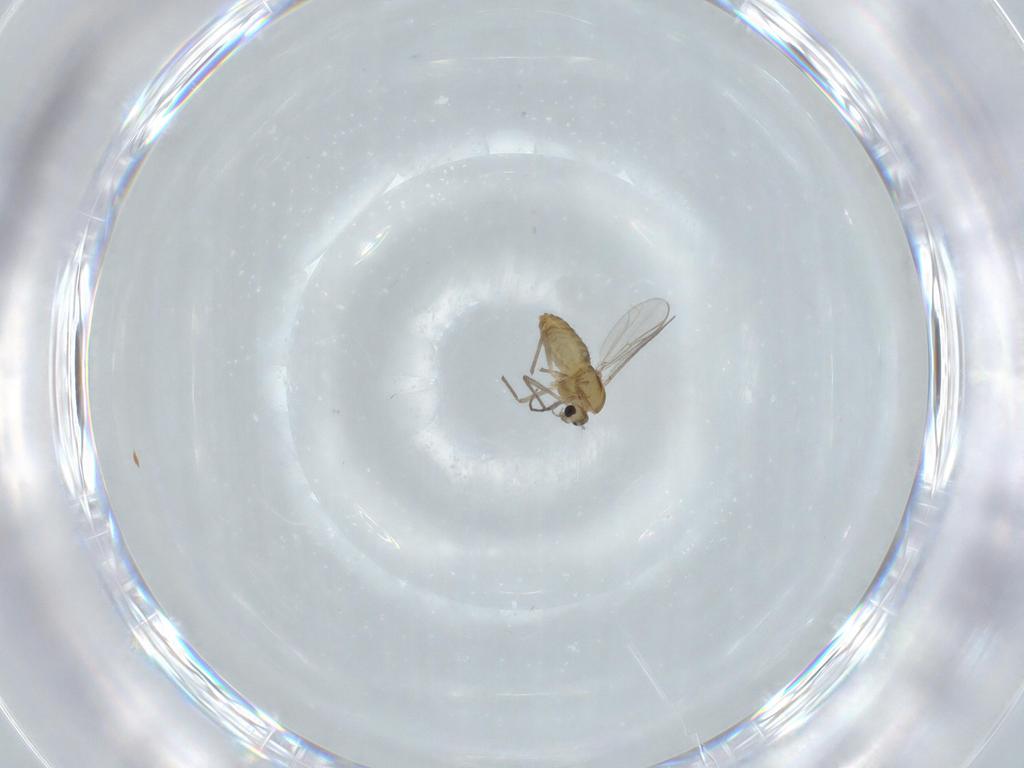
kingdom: Animalia
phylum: Arthropoda
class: Insecta
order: Diptera
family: Chironomidae
